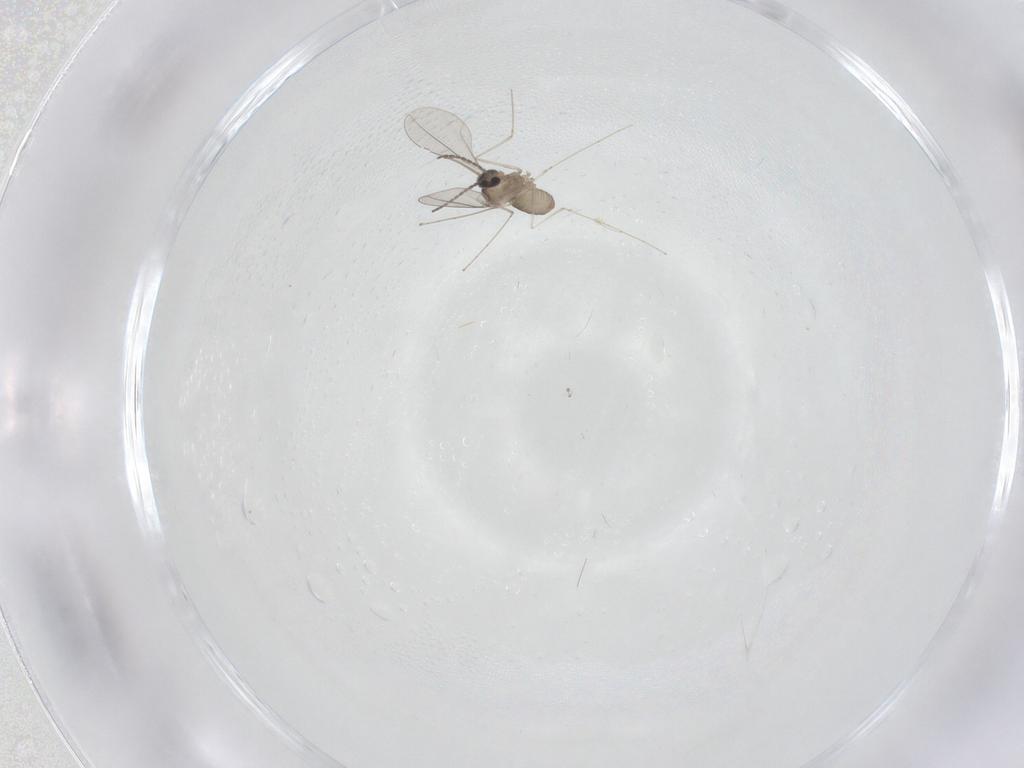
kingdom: Animalia
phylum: Arthropoda
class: Insecta
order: Diptera
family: Cecidomyiidae
